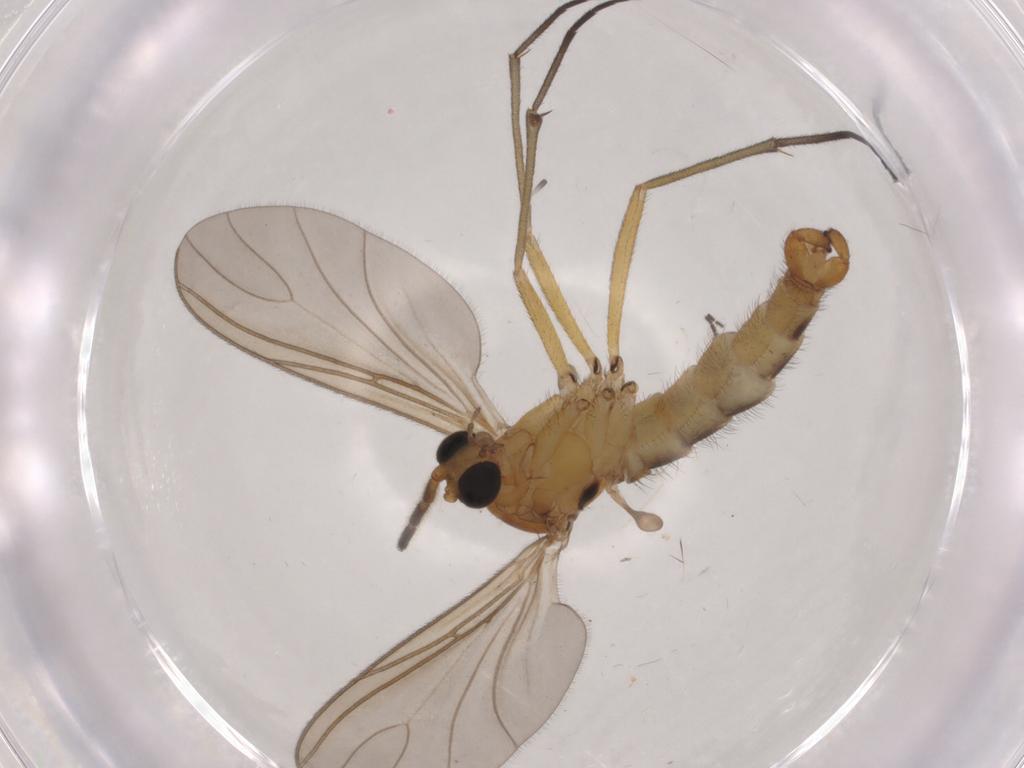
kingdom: Animalia
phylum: Arthropoda
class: Insecta
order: Diptera
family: Sciaridae
